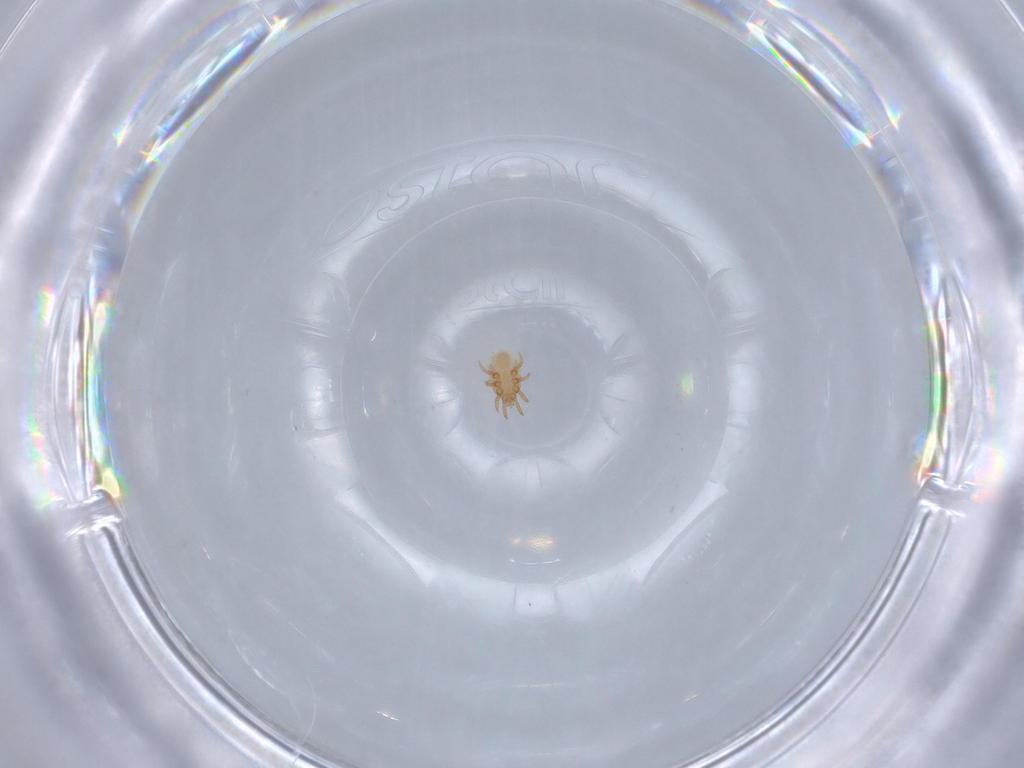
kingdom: Animalia
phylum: Arthropoda
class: Arachnida
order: Mesostigmata
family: Dinychidae
